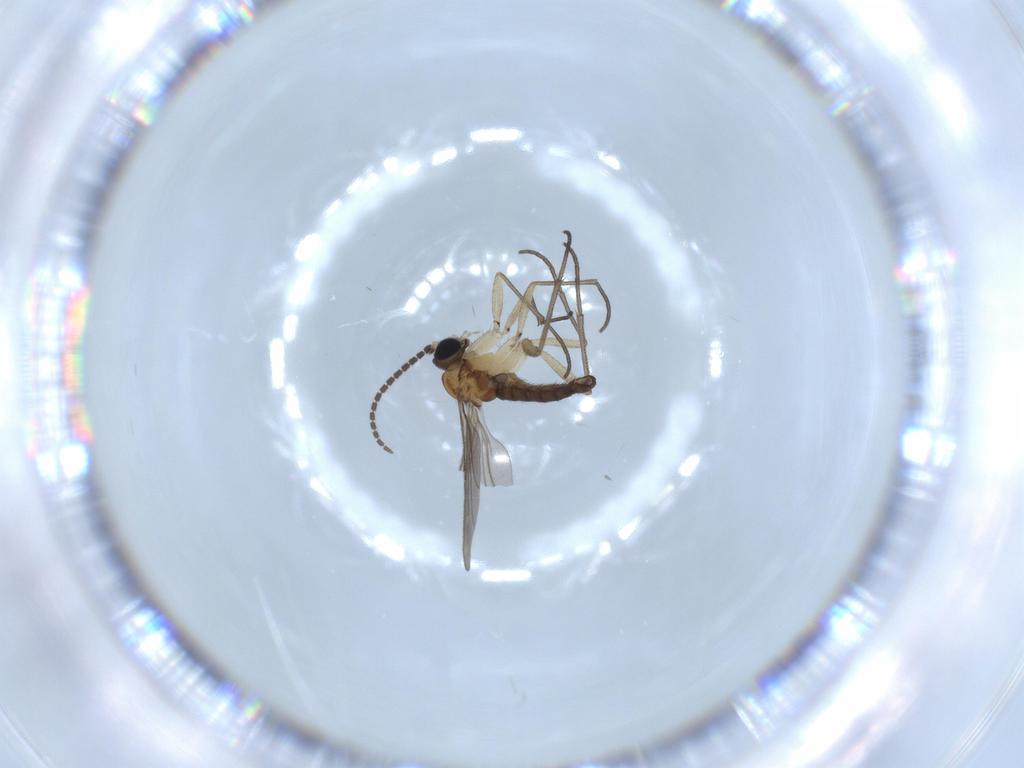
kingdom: Animalia
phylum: Arthropoda
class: Insecta
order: Diptera
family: Sciaridae
